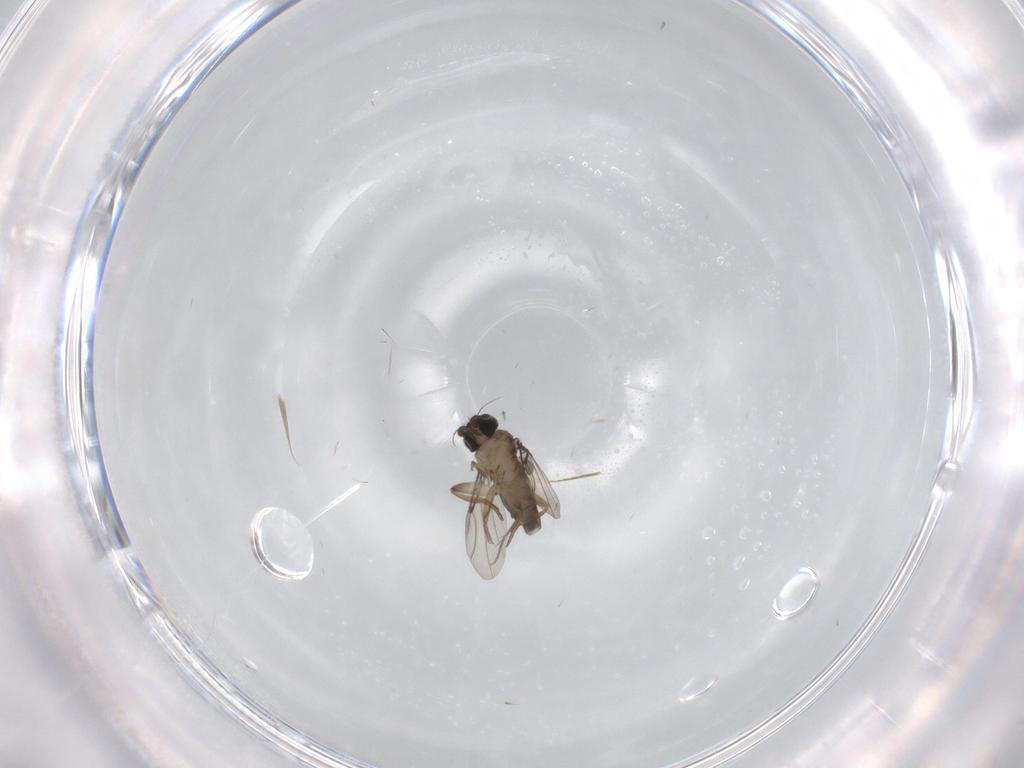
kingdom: Animalia
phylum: Arthropoda
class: Insecta
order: Diptera
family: Phoridae
